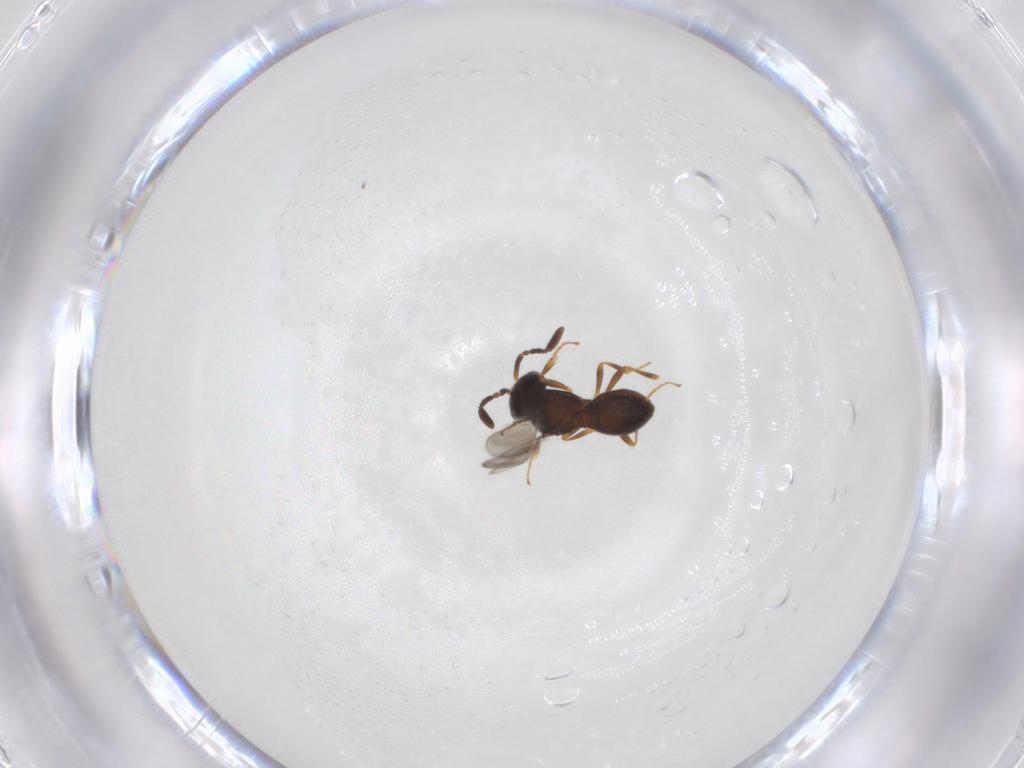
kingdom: Animalia
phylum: Arthropoda
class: Insecta
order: Hymenoptera
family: Scelionidae
